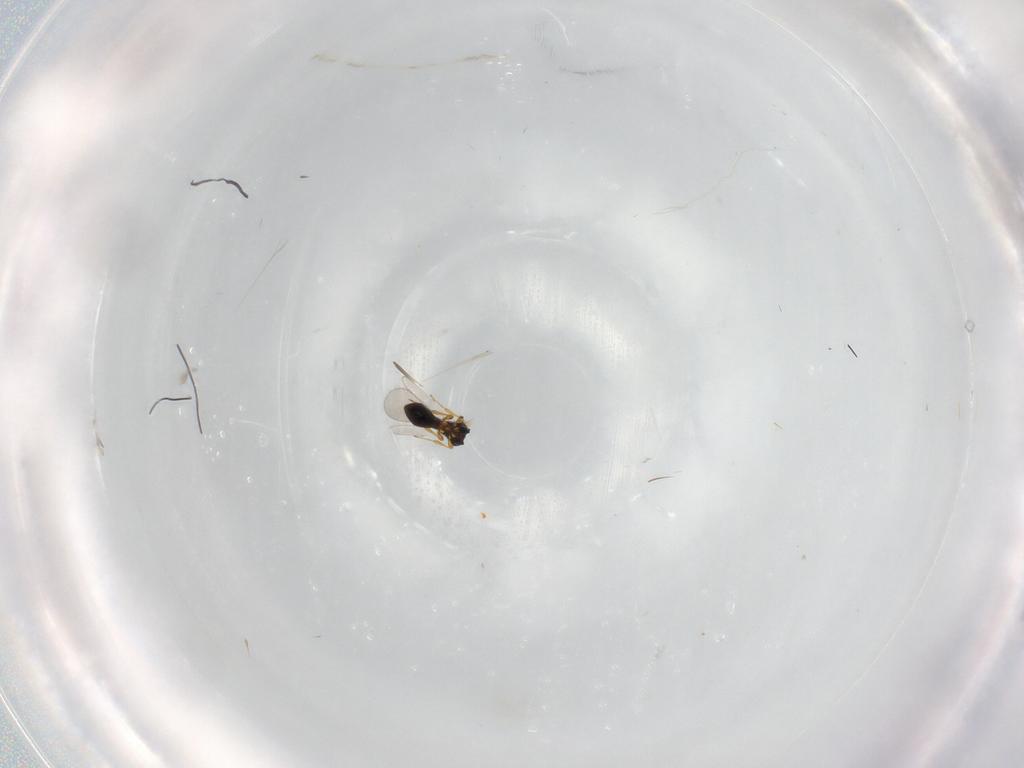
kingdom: Animalia
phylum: Arthropoda
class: Insecta
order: Hymenoptera
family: Platygastridae
